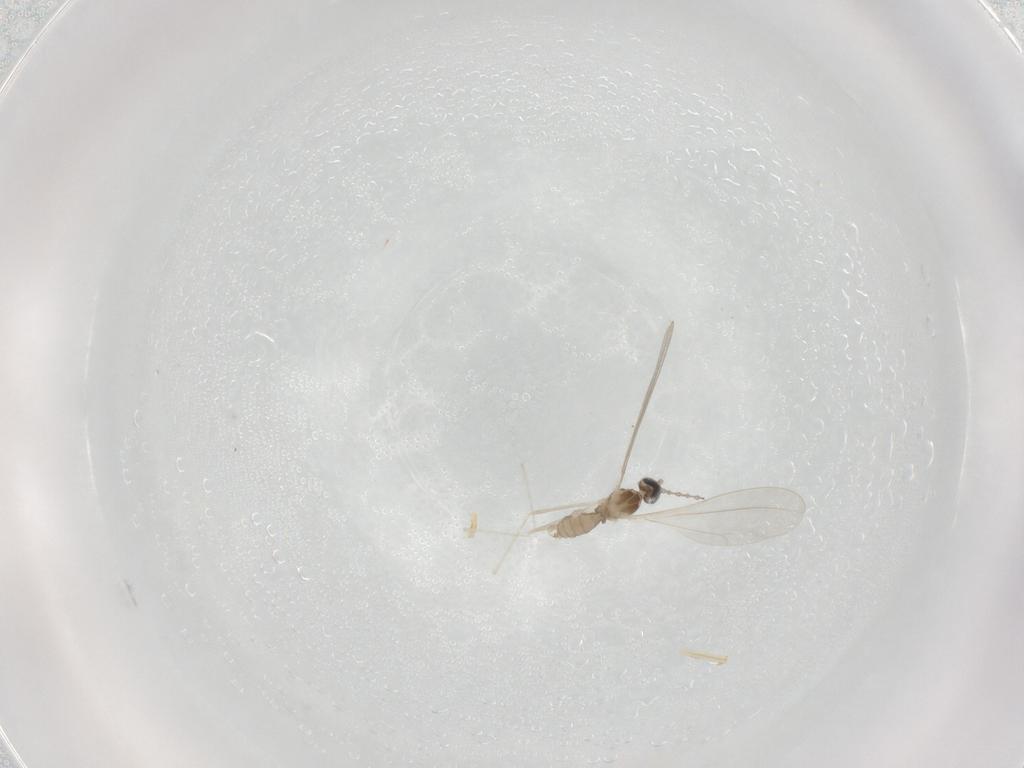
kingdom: Animalia
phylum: Arthropoda
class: Insecta
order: Diptera
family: Cecidomyiidae
